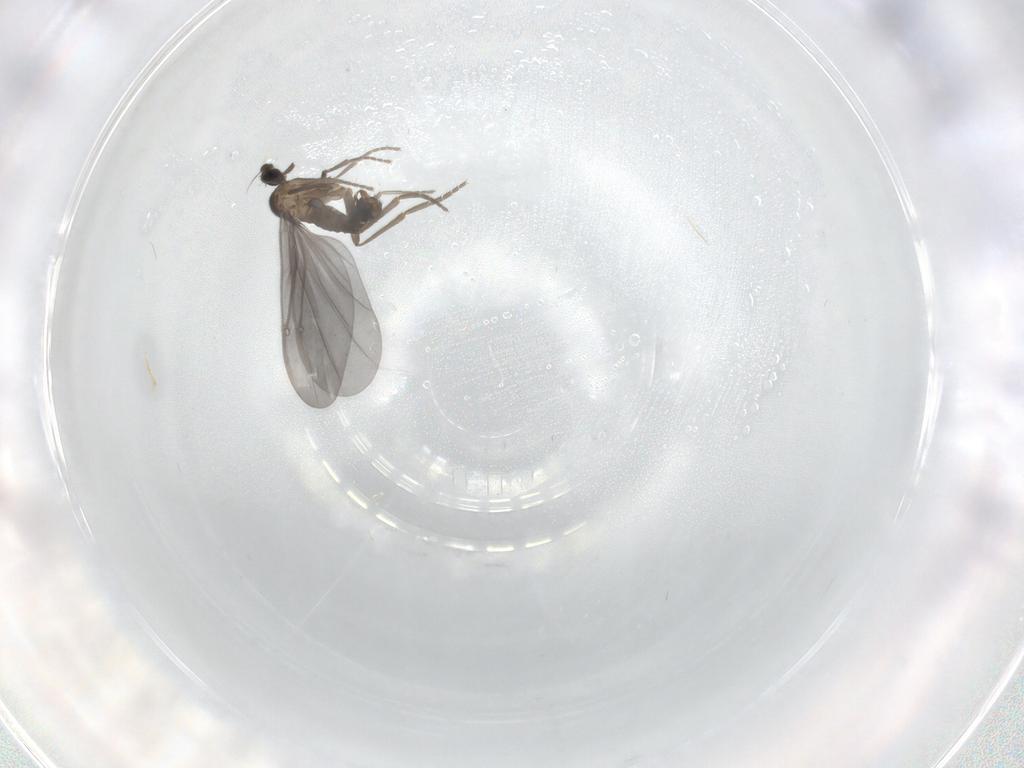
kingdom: Animalia
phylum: Arthropoda
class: Insecta
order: Diptera
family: Phoridae
